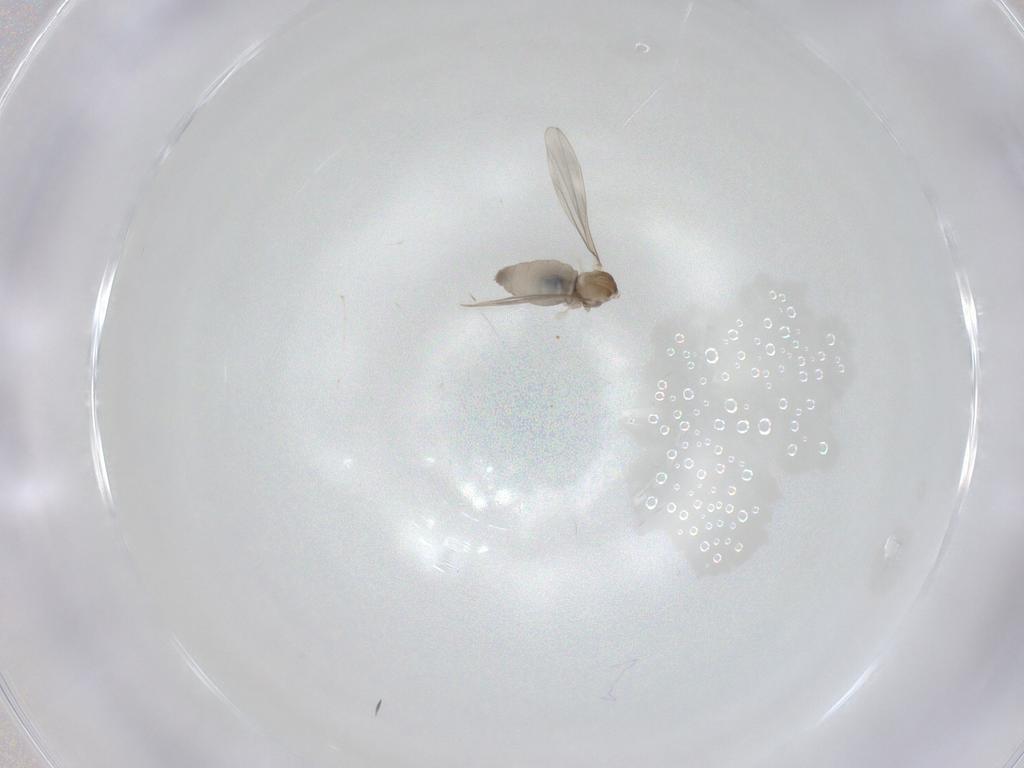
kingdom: Animalia
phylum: Arthropoda
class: Insecta
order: Diptera
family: Cecidomyiidae
